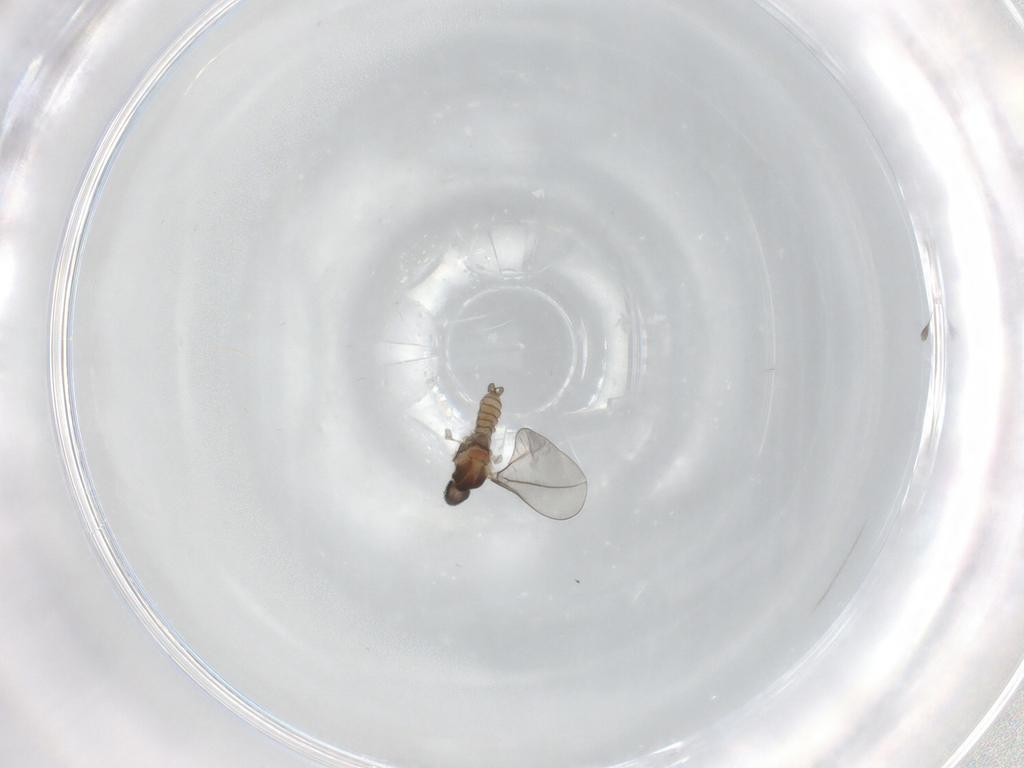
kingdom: Animalia
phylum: Arthropoda
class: Insecta
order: Diptera
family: Cecidomyiidae
